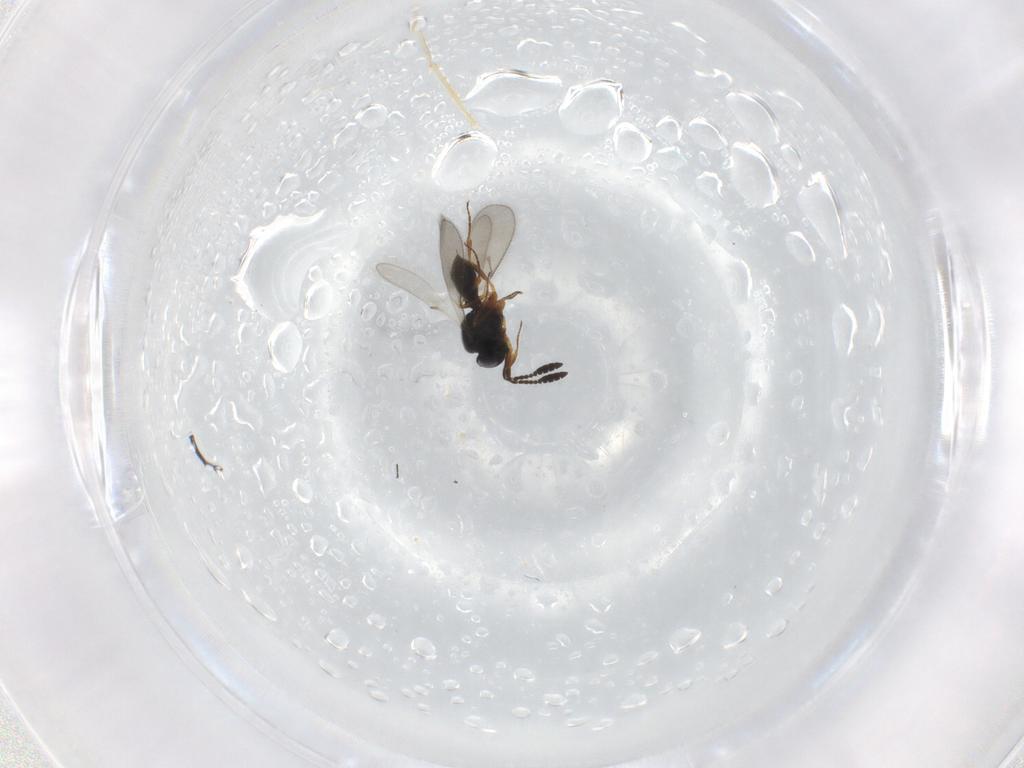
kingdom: Animalia
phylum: Arthropoda
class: Insecta
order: Hymenoptera
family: Scelionidae
